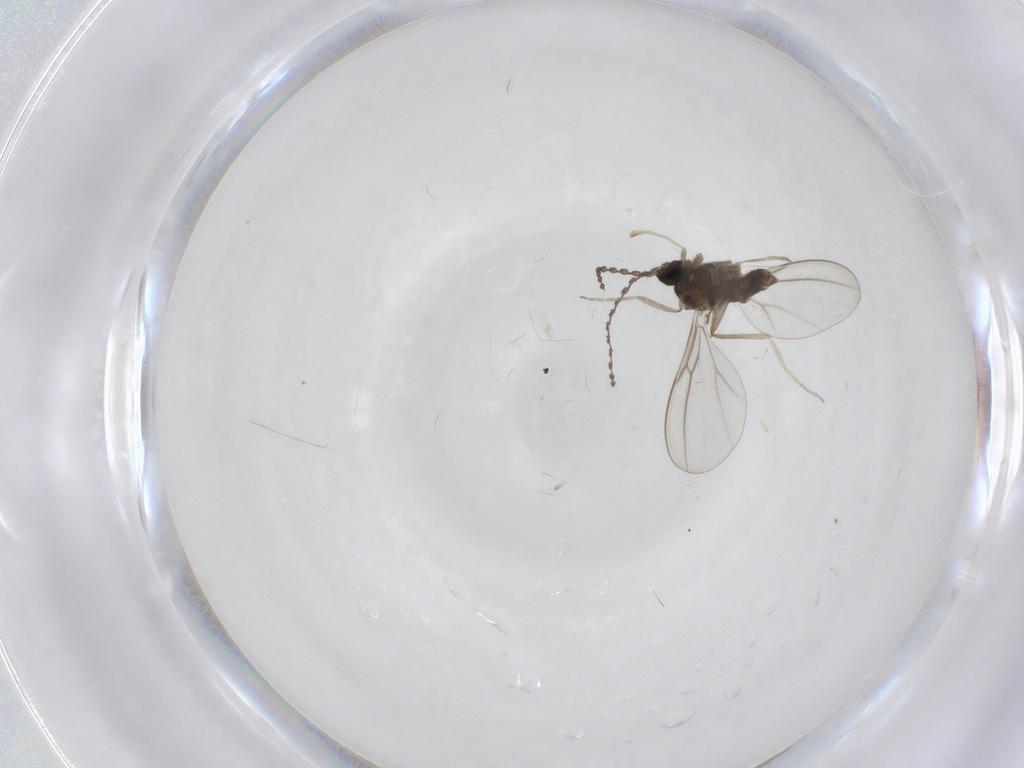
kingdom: Animalia
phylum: Arthropoda
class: Insecta
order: Diptera
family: Cecidomyiidae
